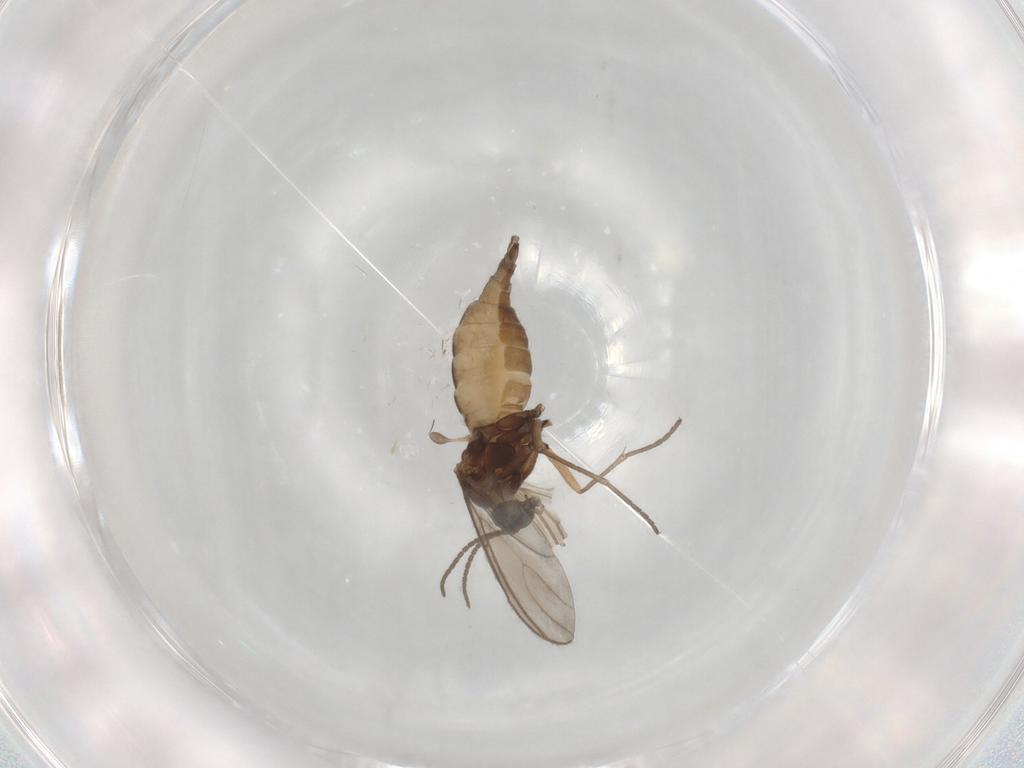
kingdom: Animalia
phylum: Arthropoda
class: Insecta
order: Diptera
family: Sciaridae
